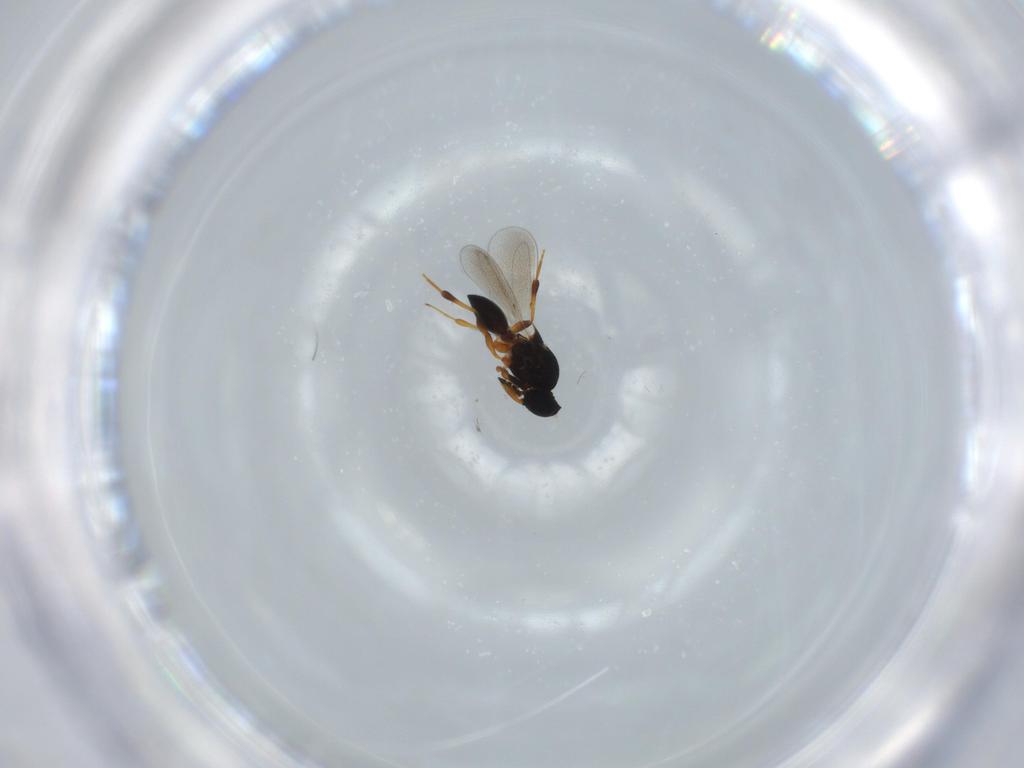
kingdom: Animalia
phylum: Arthropoda
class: Insecta
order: Hymenoptera
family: Platygastridae
